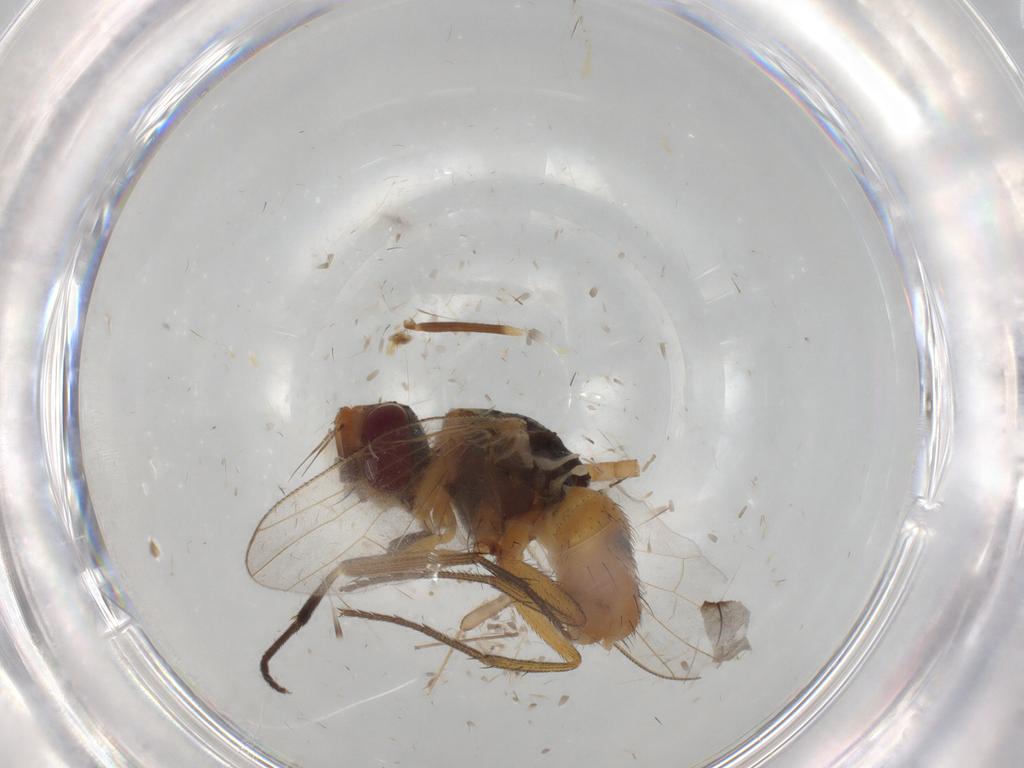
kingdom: Animalia
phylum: Arthropoda
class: Insecta
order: Diptera
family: Muscidae
